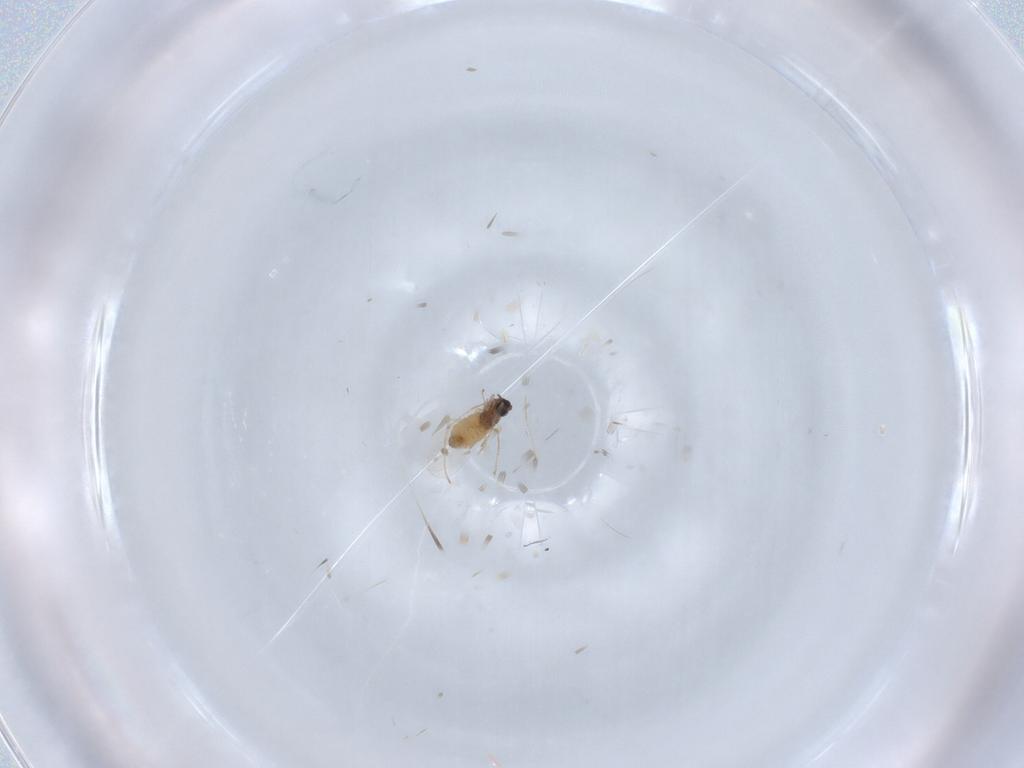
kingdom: Animalia
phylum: Arthropoda
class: Insecta
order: Diptera
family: Cecidomyiidae
